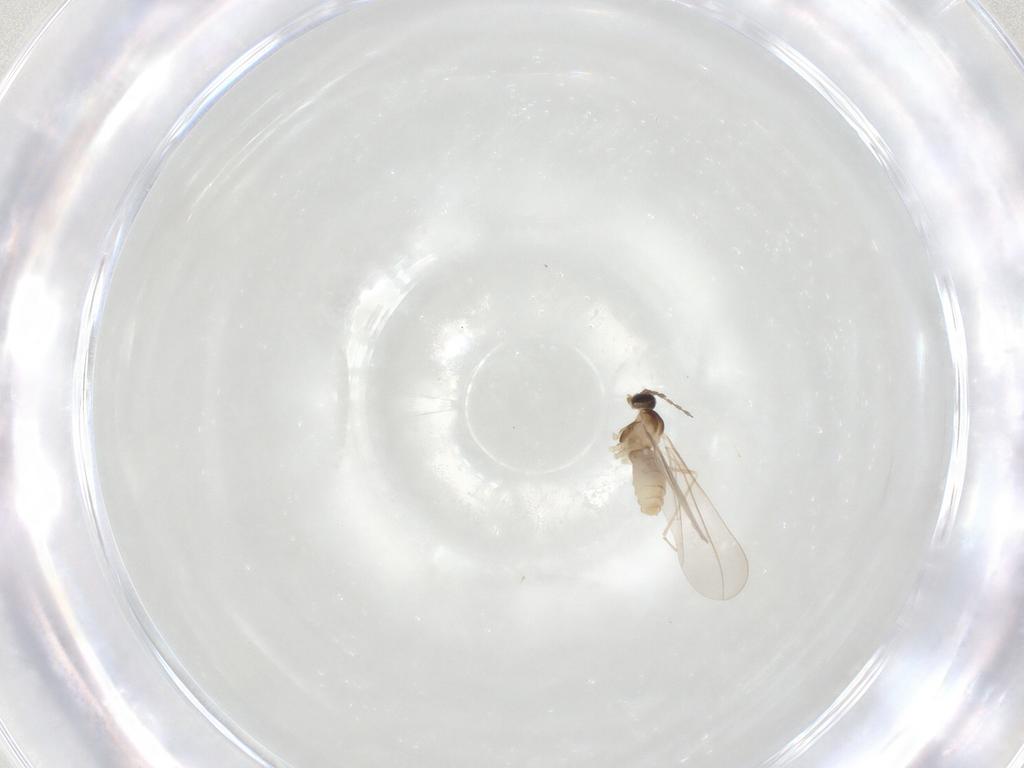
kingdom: Animalia
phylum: Arthropoda
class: Insecta
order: Diptera
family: Cecidomyiidae
